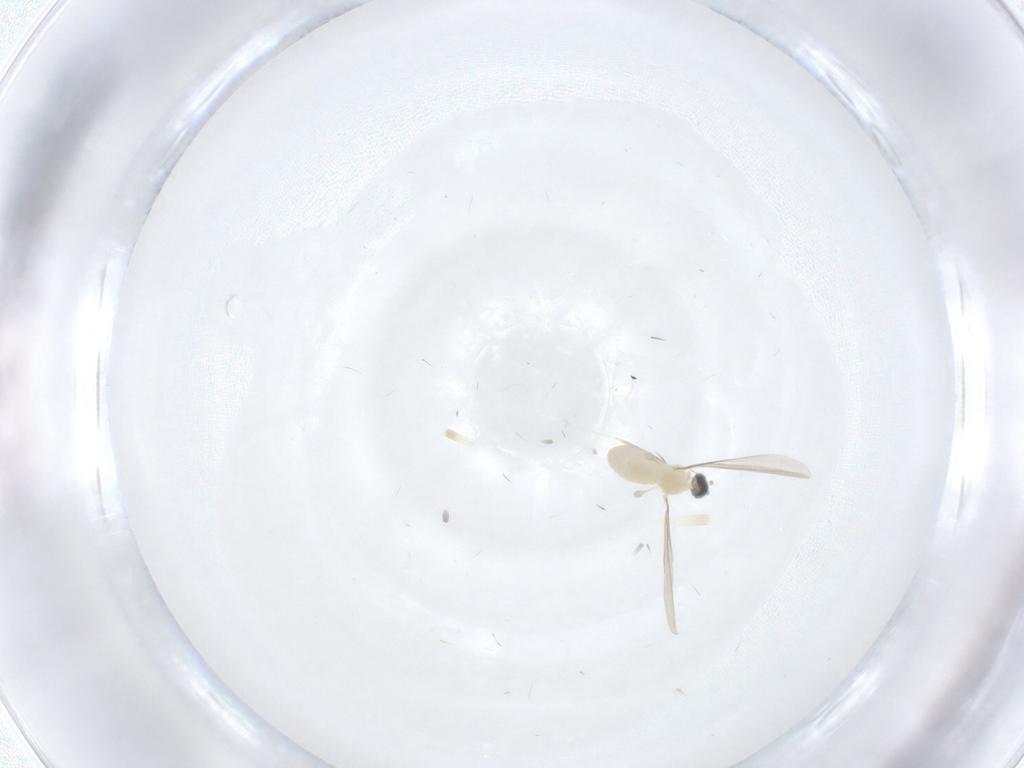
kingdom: Animalia
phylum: Arthropoda
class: Insecta
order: Diptera
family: Cecidomyiidae
